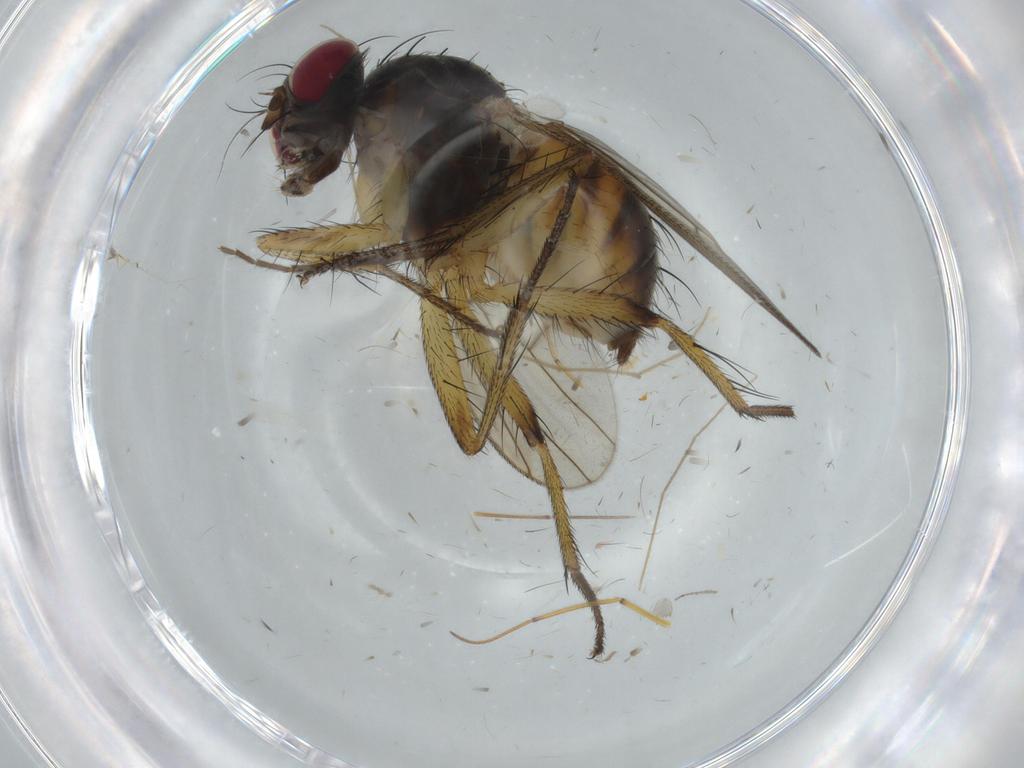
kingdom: Animalia
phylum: Arthropoda
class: Insecta
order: Diptera
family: Muscidae
